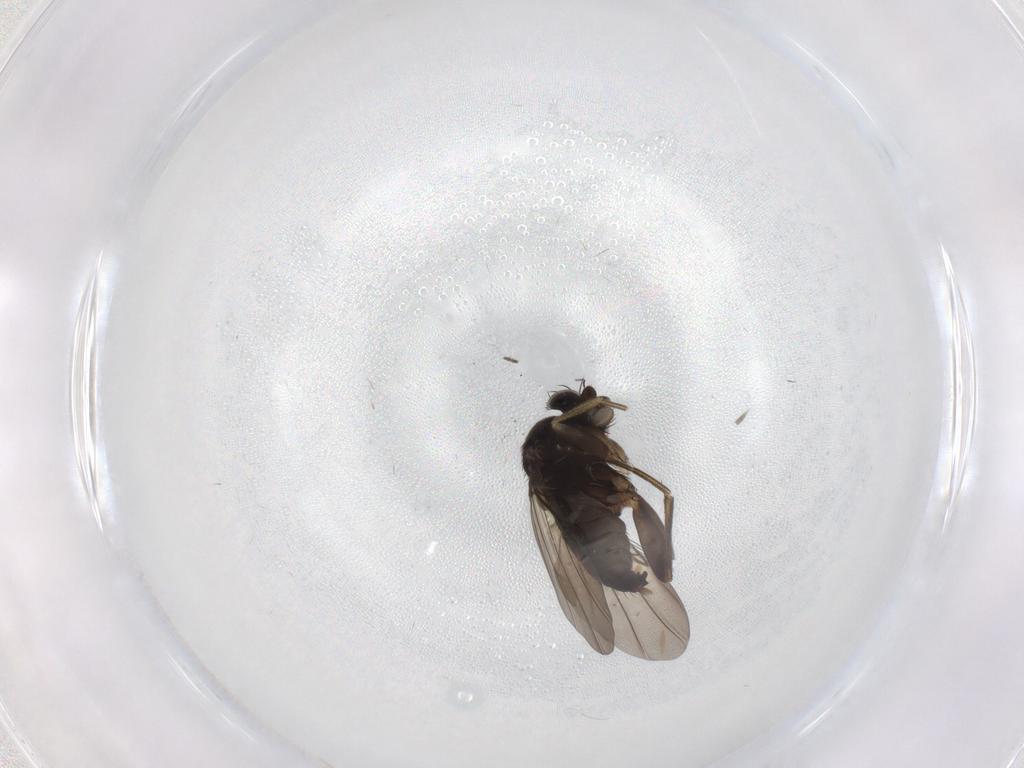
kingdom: Animalia
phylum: Arthropoda
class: Insecta
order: Diptera
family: Phoridae
